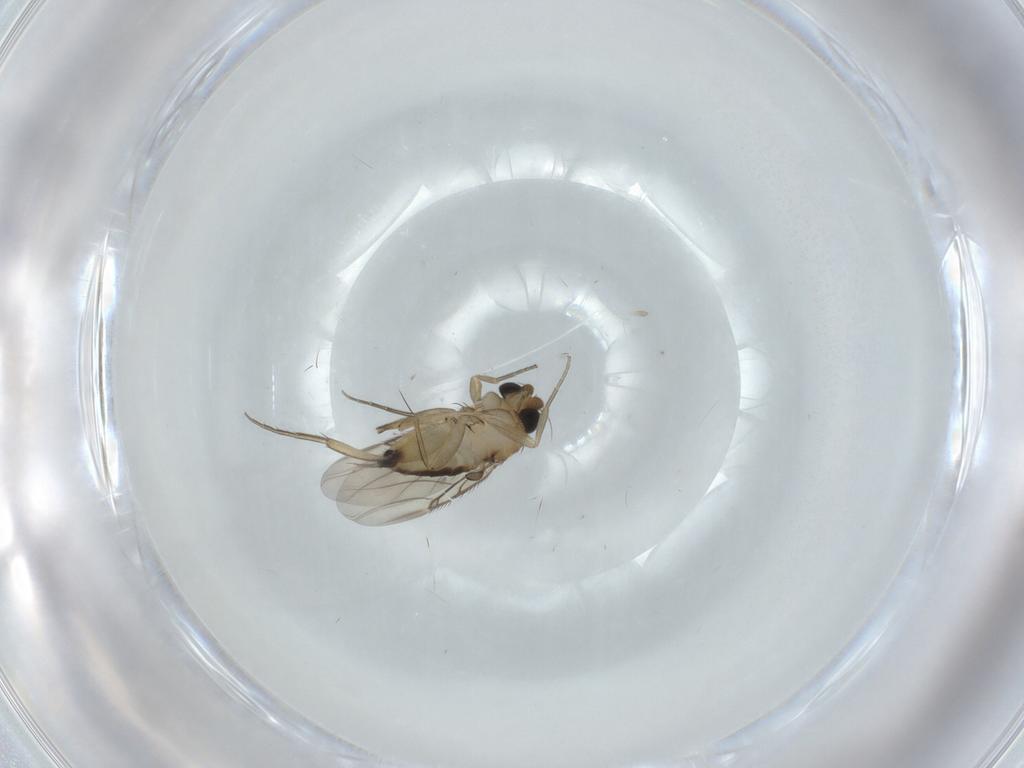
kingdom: Animalia
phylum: Arthropoda
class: Insecta
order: Diptera
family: Phoridae
